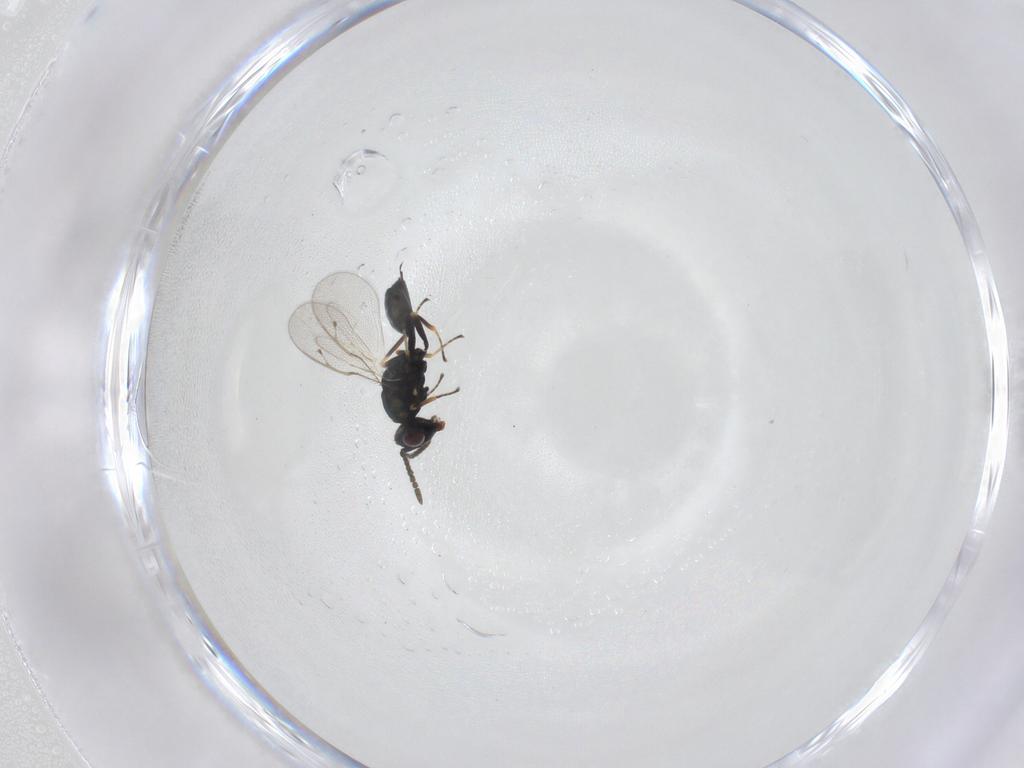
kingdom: Animalia
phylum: Arthropoda
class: Insecta
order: Hymenoptera
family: Pteromalidae
